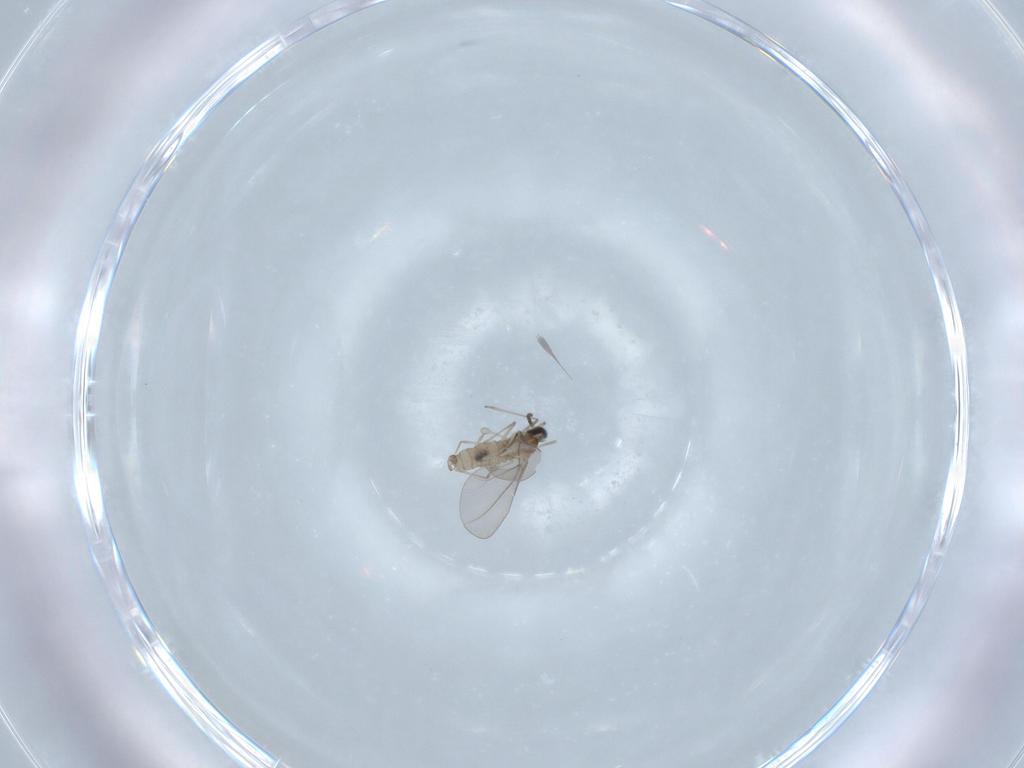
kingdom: Animalia
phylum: Arthropoda
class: Insecta
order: Diptera
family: Cecidomyiidae
